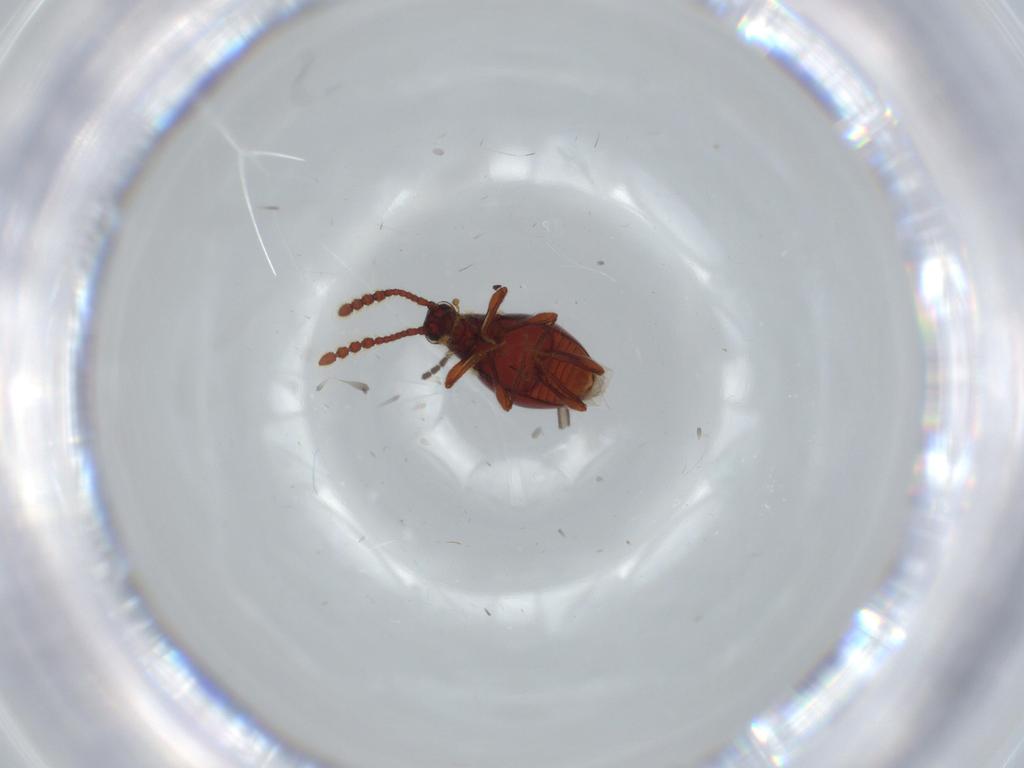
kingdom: Animalia
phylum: Arthropoda
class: Insecta
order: Coleoptera
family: Staphylinidae
